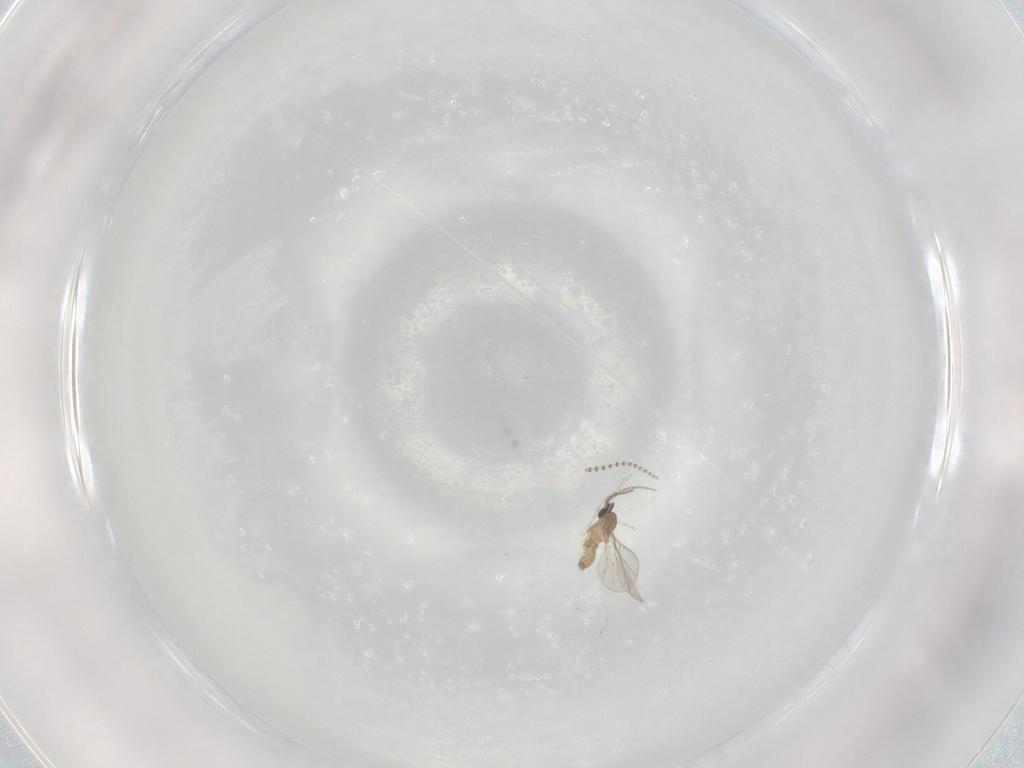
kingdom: Animalia
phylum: Arthropoda
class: Insecta
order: Diptera
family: Cecidomyiidae
